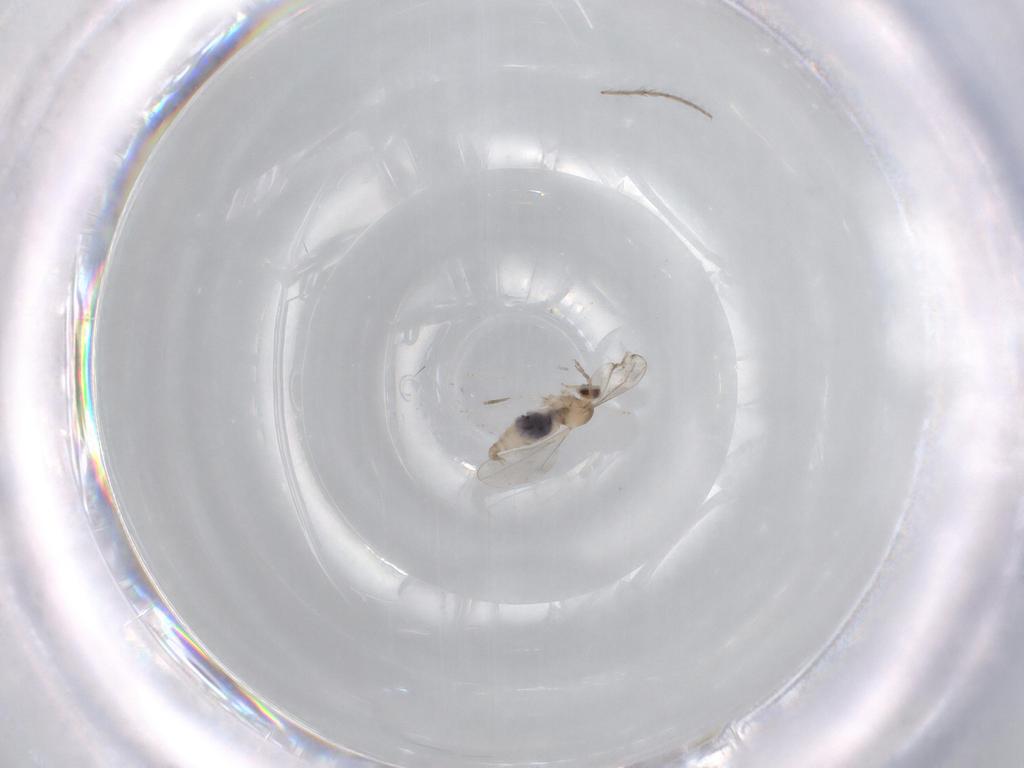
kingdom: Animalia
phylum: Arthropoda
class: Insecta
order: Diptera
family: Chironomidae
